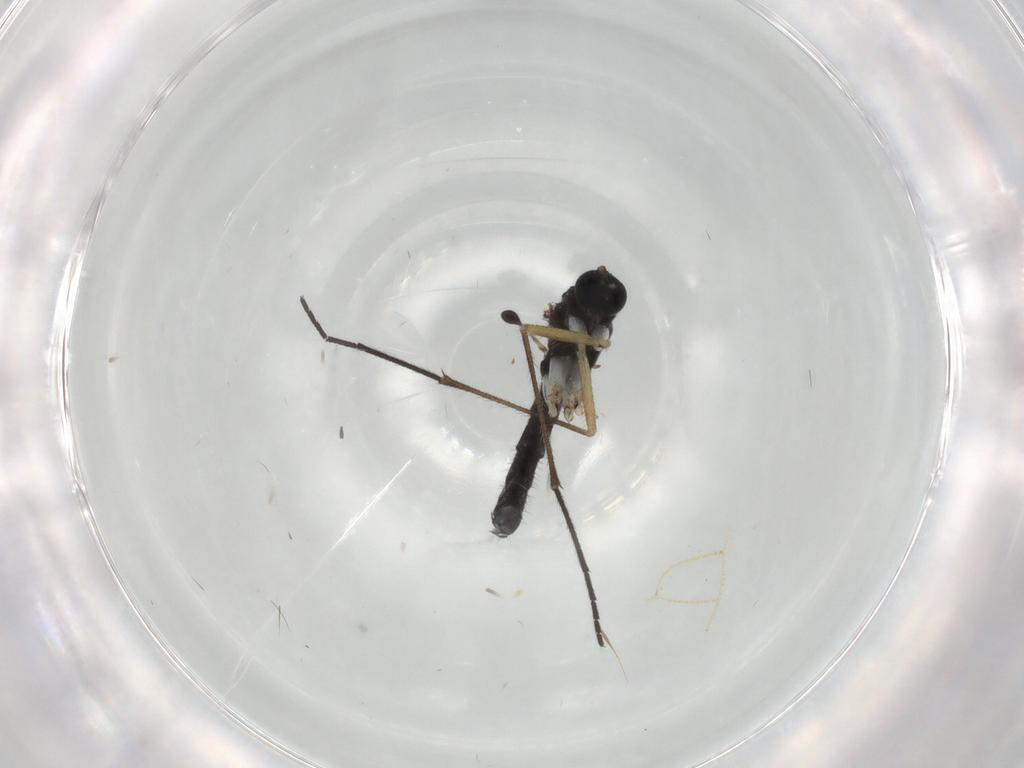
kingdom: Animalia
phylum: Arthropoda
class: Insecta
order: Diptera
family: Sciaridae
